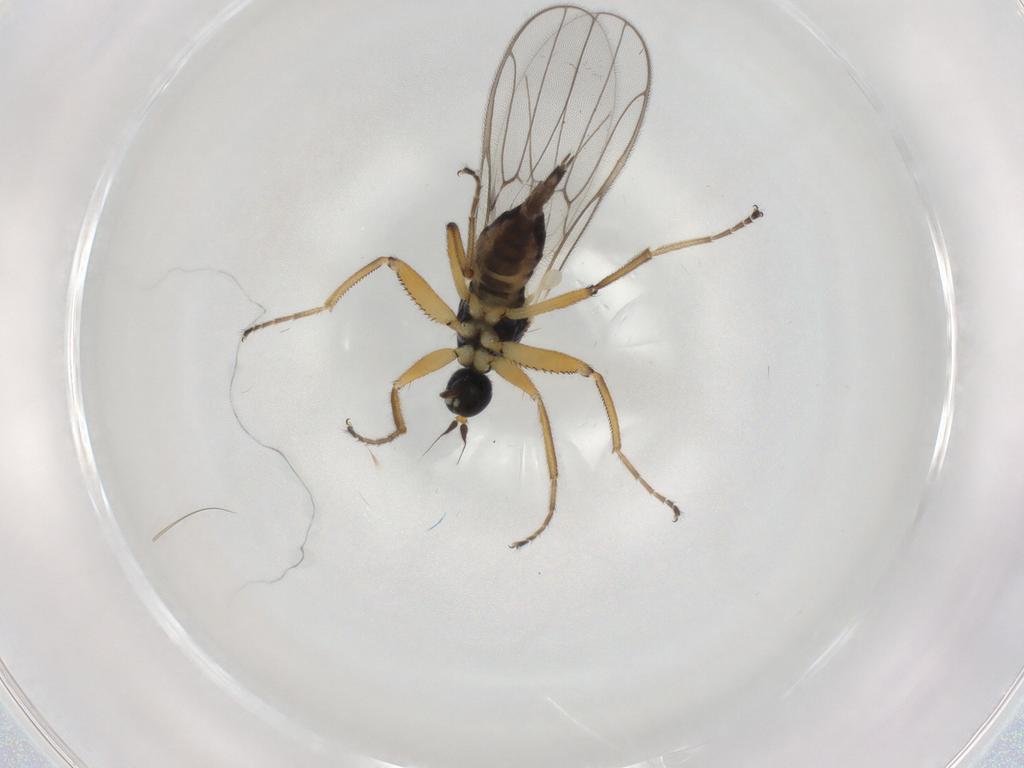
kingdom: Animalia
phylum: Arthropoda
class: Insecta
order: Diptera
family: Hybotidae
